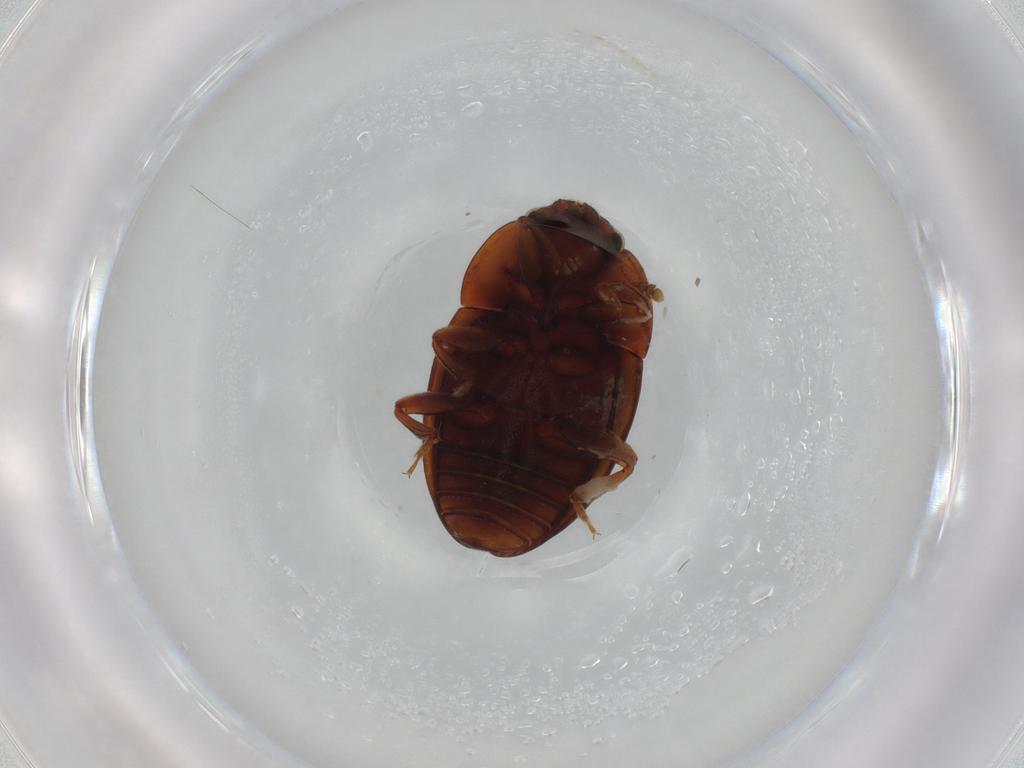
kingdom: Animalia
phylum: Arthropoda
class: Insecta
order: Coleoptera
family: Nitidulidae
